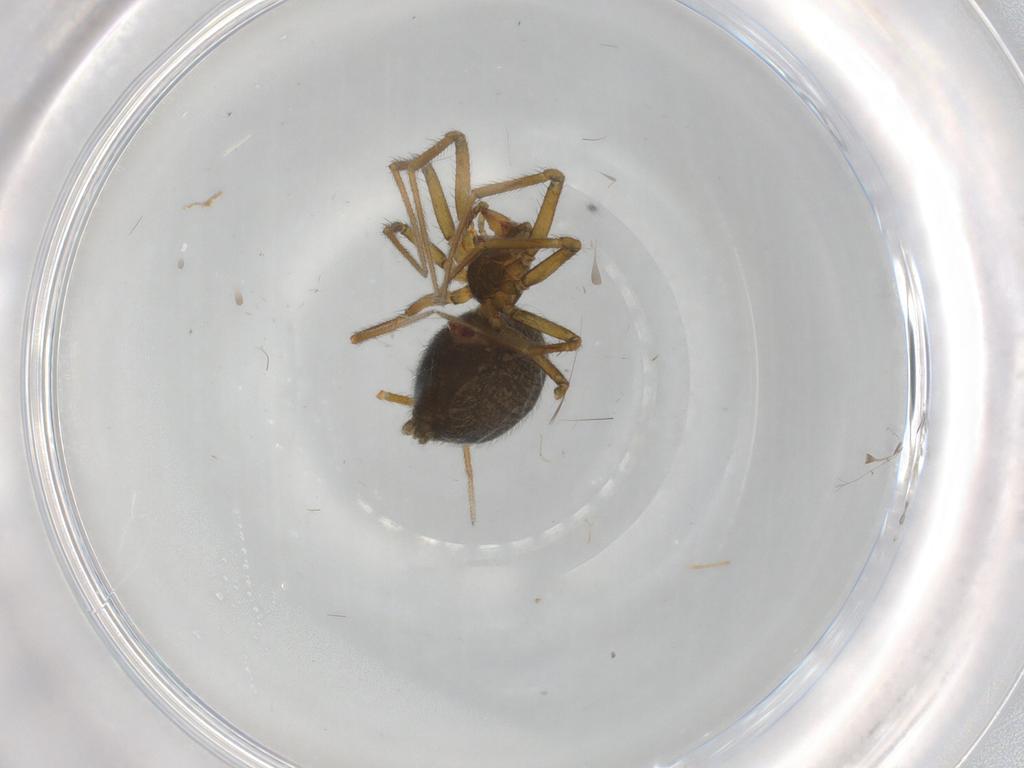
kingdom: Animalia
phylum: Arthropoda
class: Arachnida
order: Araneae
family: Linyphiidae
